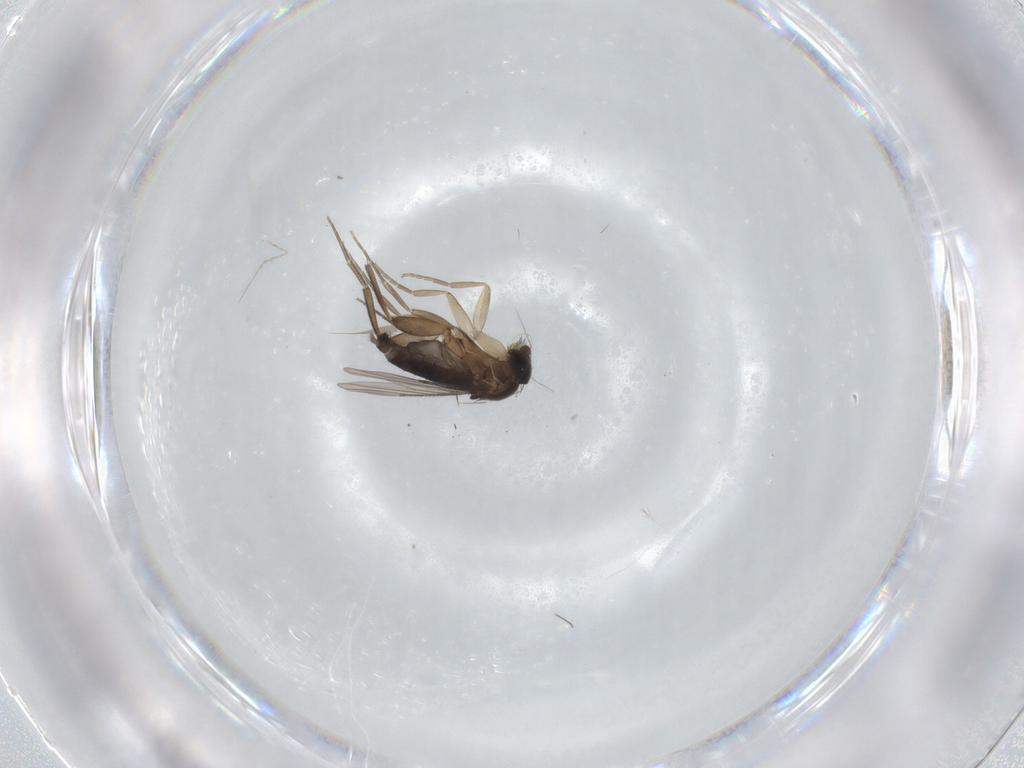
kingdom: Animalia
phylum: Arthropoda
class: Insecta
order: Diptera
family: Phoridae
